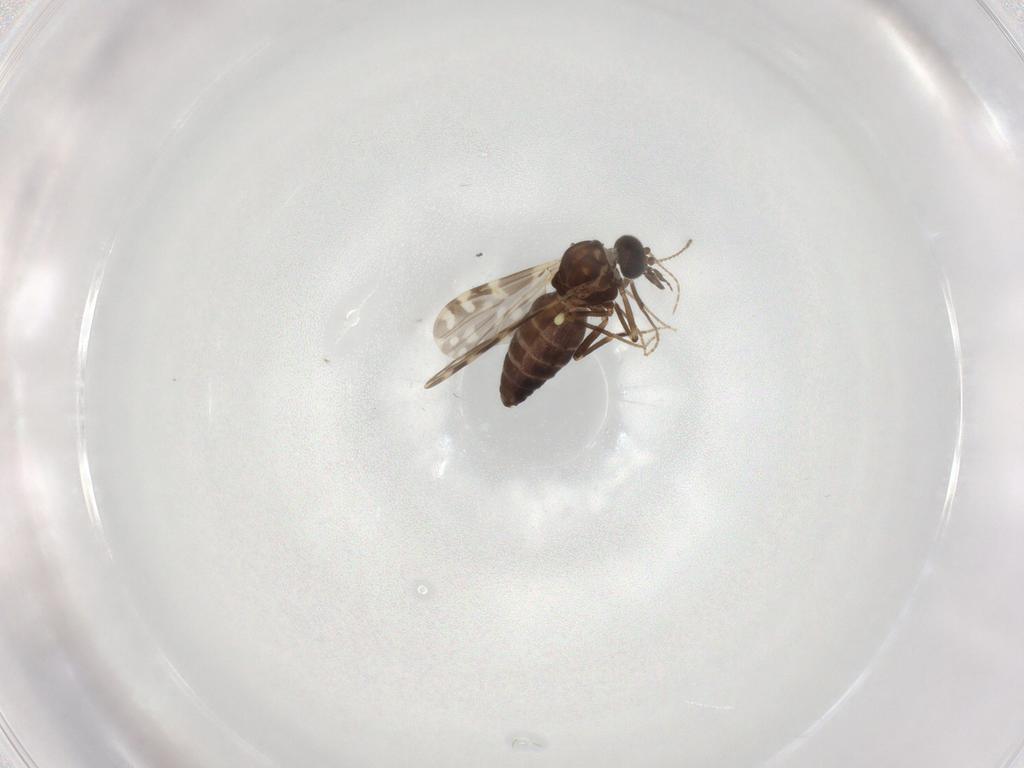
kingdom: Animalia
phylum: Arthropoda
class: Insecta
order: Diptera
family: Ceratopogonidae
